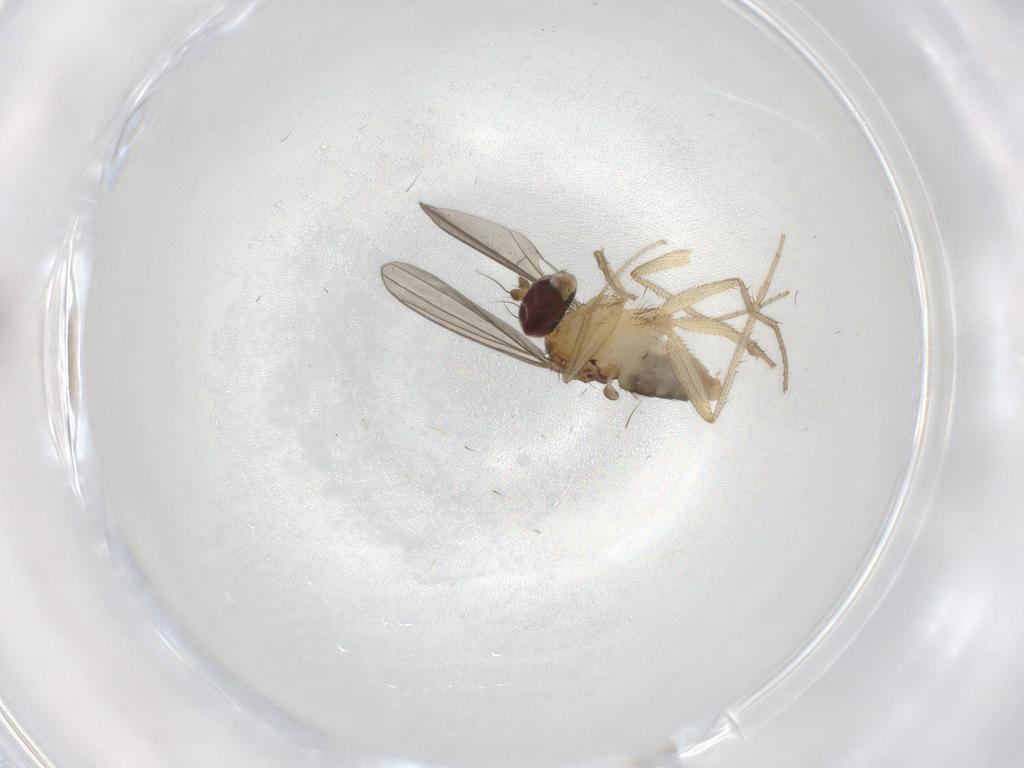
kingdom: Animalia
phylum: Arthropoda
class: Insecta
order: Diptera
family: Dolichopodidae
